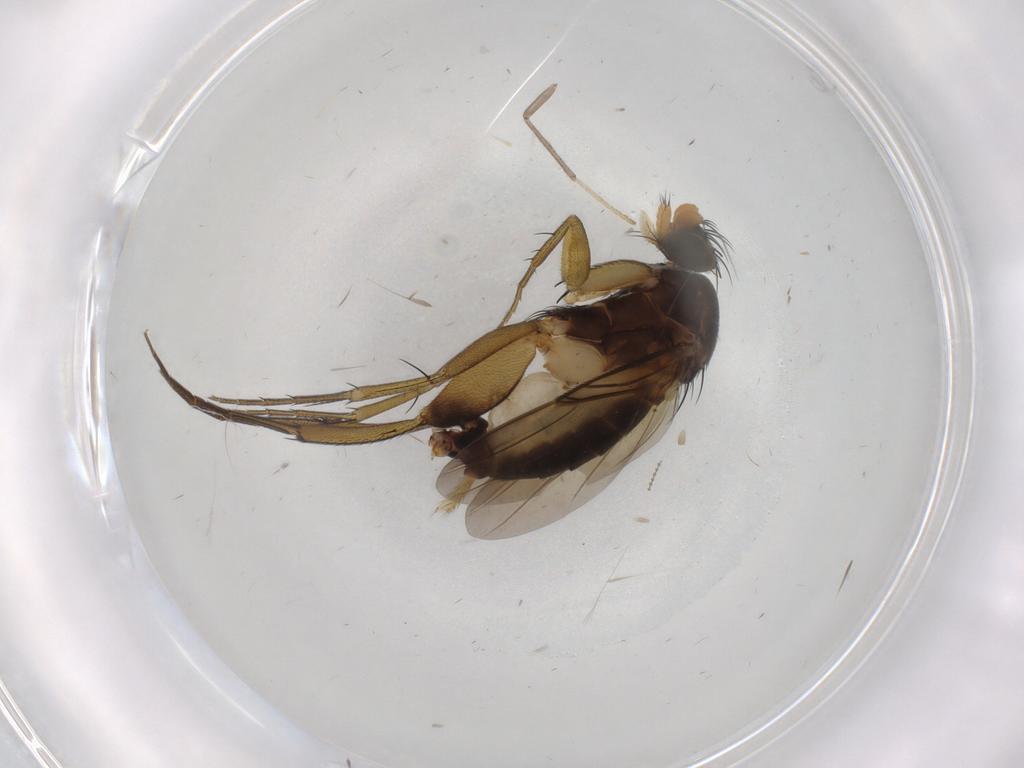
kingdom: Animalia
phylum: Arthropoda
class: Insecta
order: Diptera
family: Phoridae
